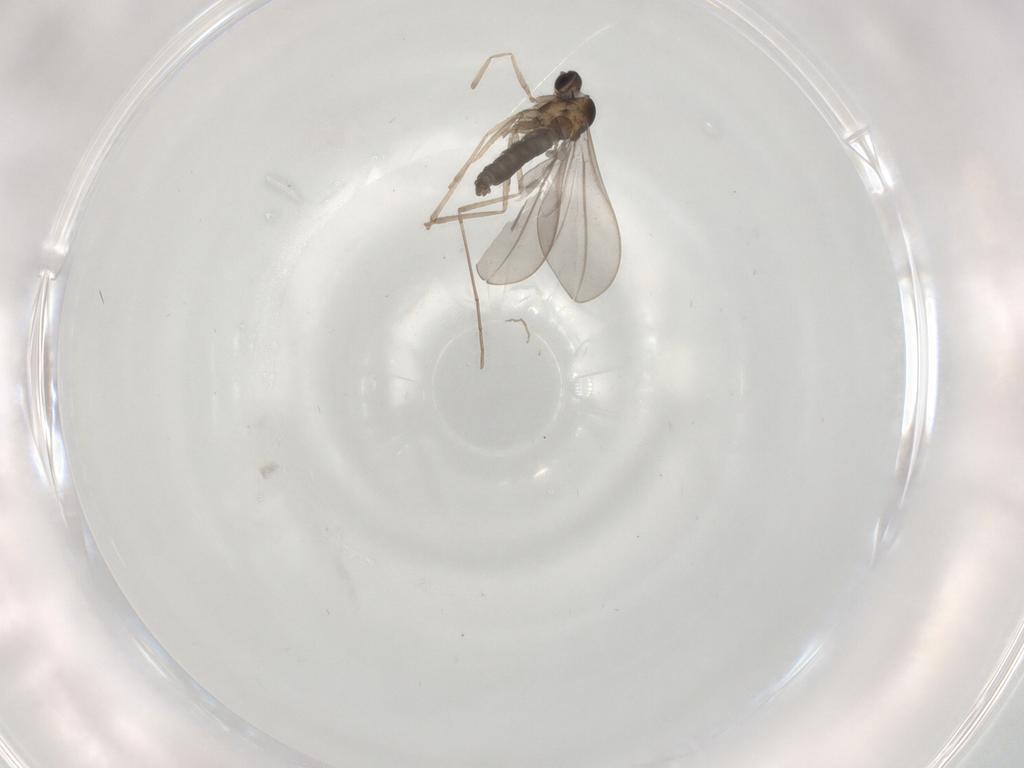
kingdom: Animalia
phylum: Arthropoda
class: Insecta
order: Diptera
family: Cecidomyiidae
